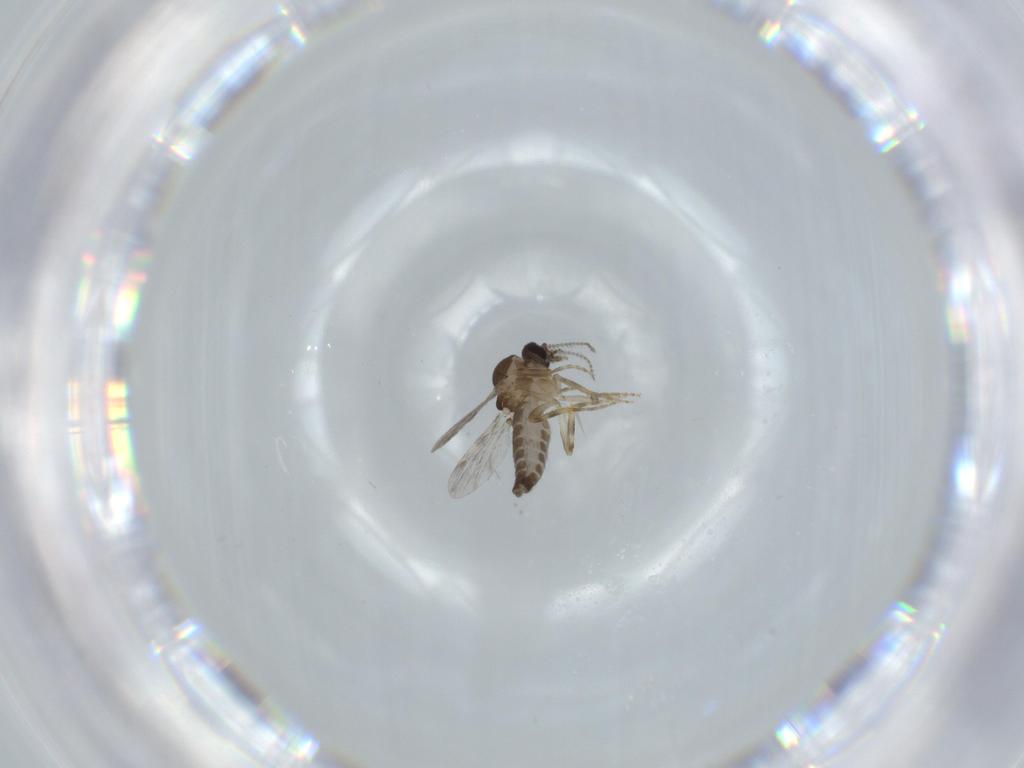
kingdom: Animalia
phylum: Arthropoda
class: Insecta
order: Diptera
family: Ceratopogonidae
